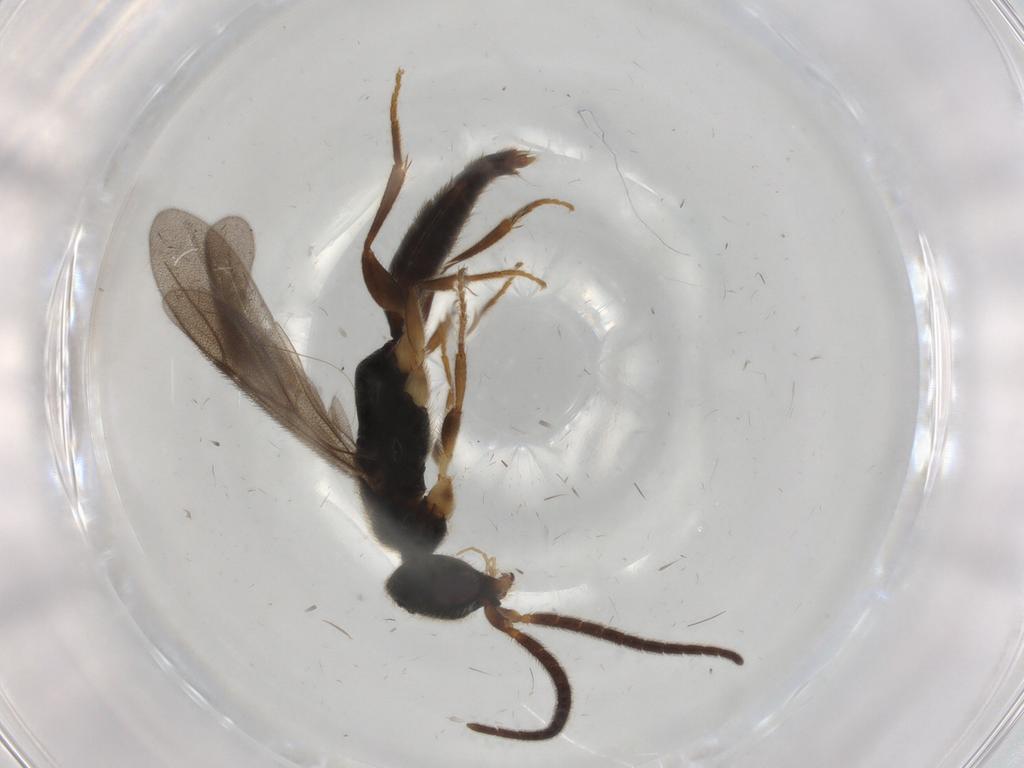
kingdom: Animalia
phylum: Arthropoda
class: Insecta
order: Hymenoptera
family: Bethylidae
